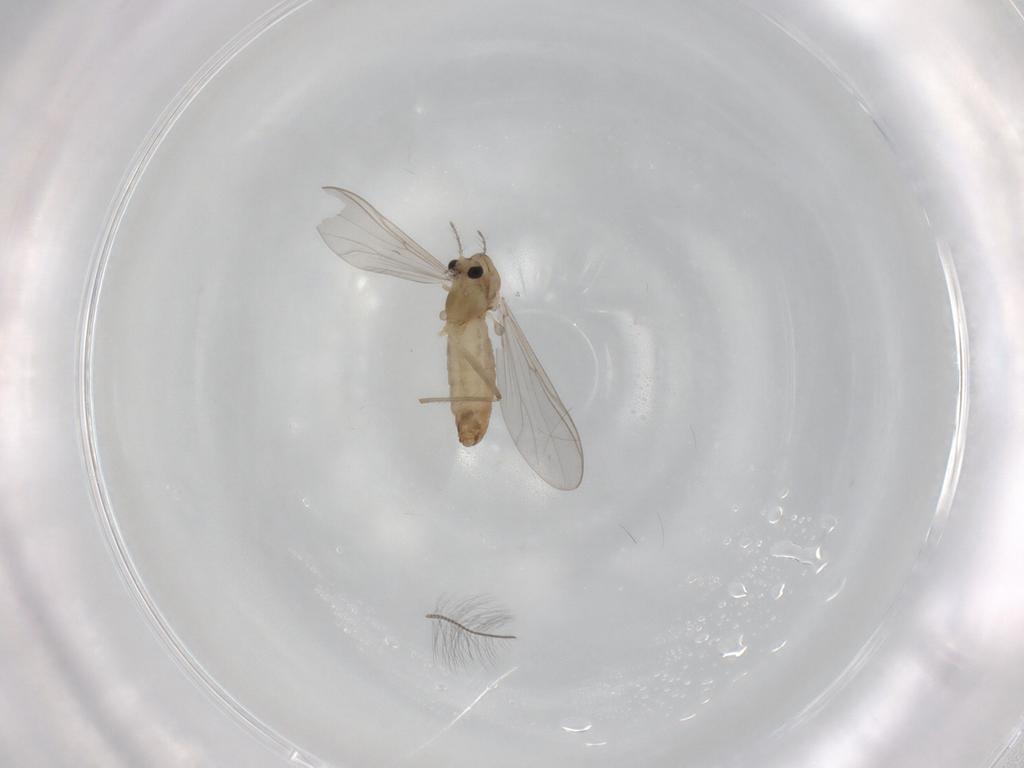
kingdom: Animalia
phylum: Arthropoda
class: Insecta
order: Diptera
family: Chironomidae
